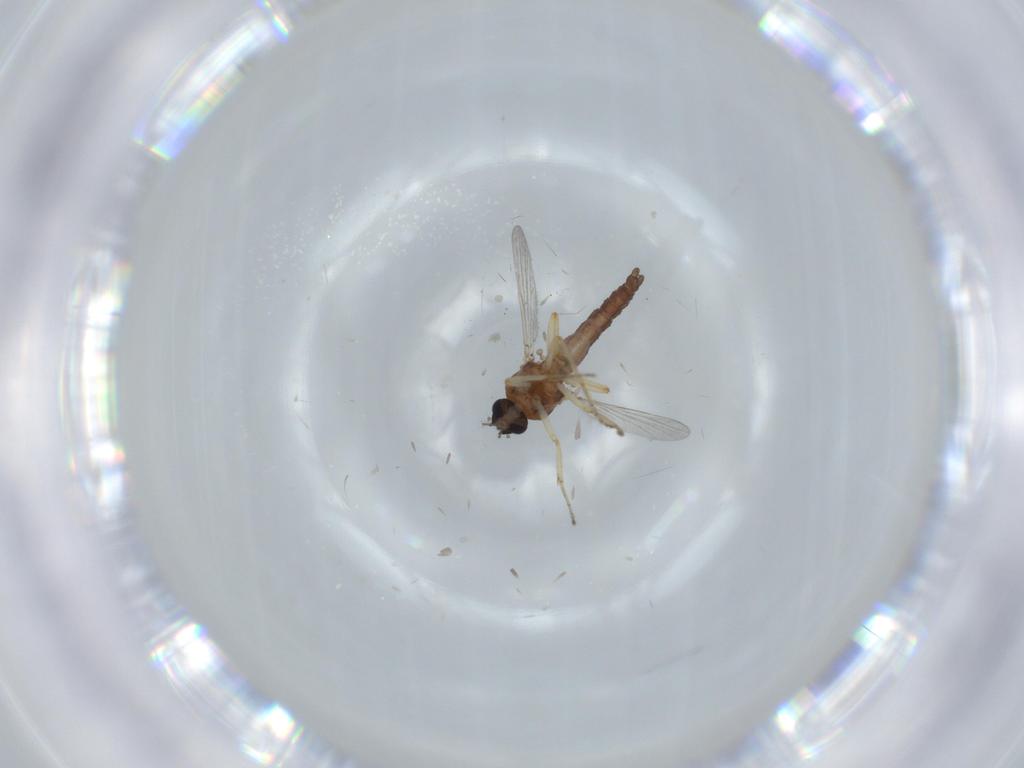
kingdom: Animalia
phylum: Arthropoda
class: Insecta
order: Diptera
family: Ceratopogonidae
